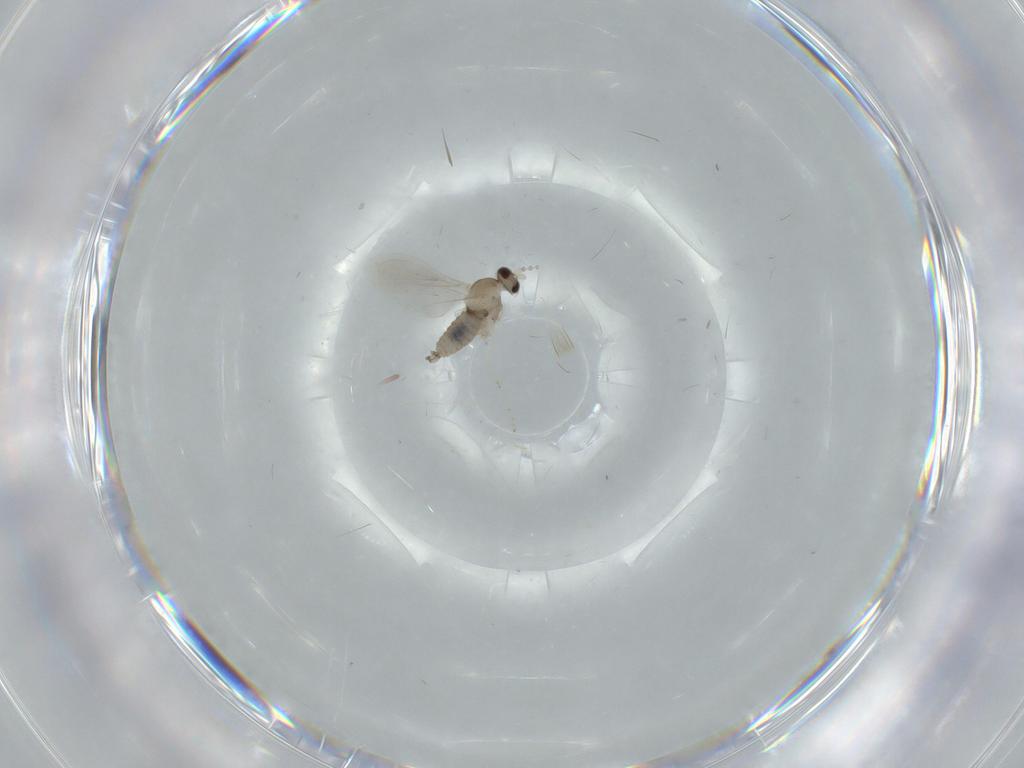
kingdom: Animalia
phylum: Arthropoda
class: Insecta
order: Diptera
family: Cecidomyiidae
